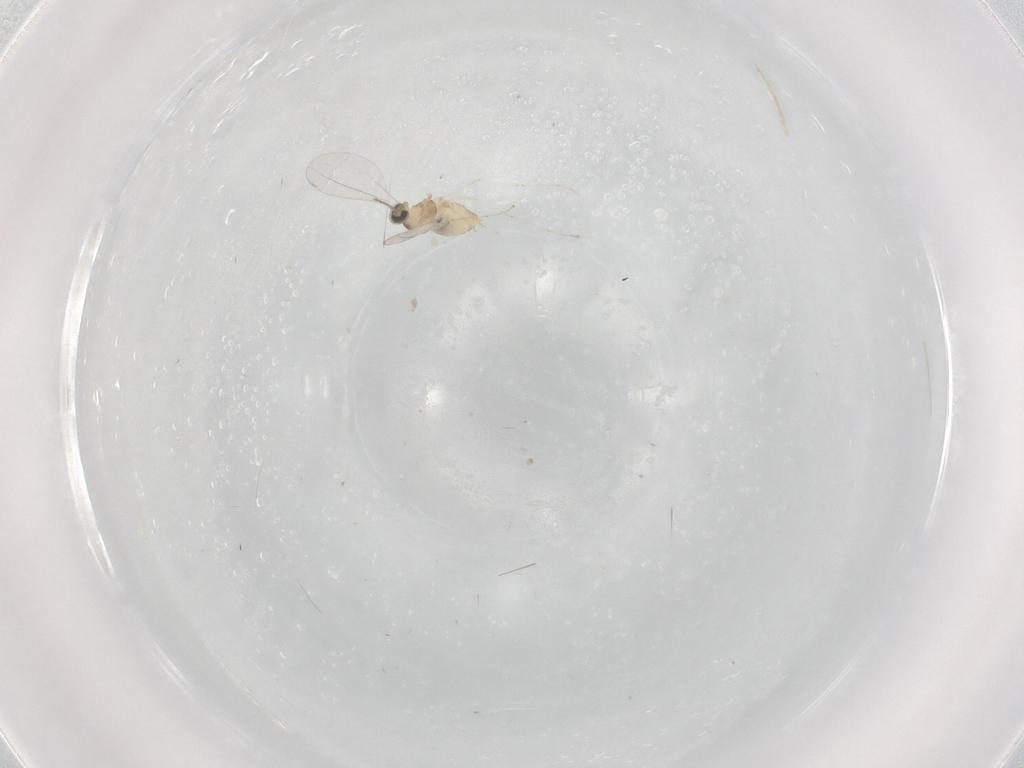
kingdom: Animalia
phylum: Arthropoda
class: Insecta
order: Diptera
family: Cecidomyiidae
